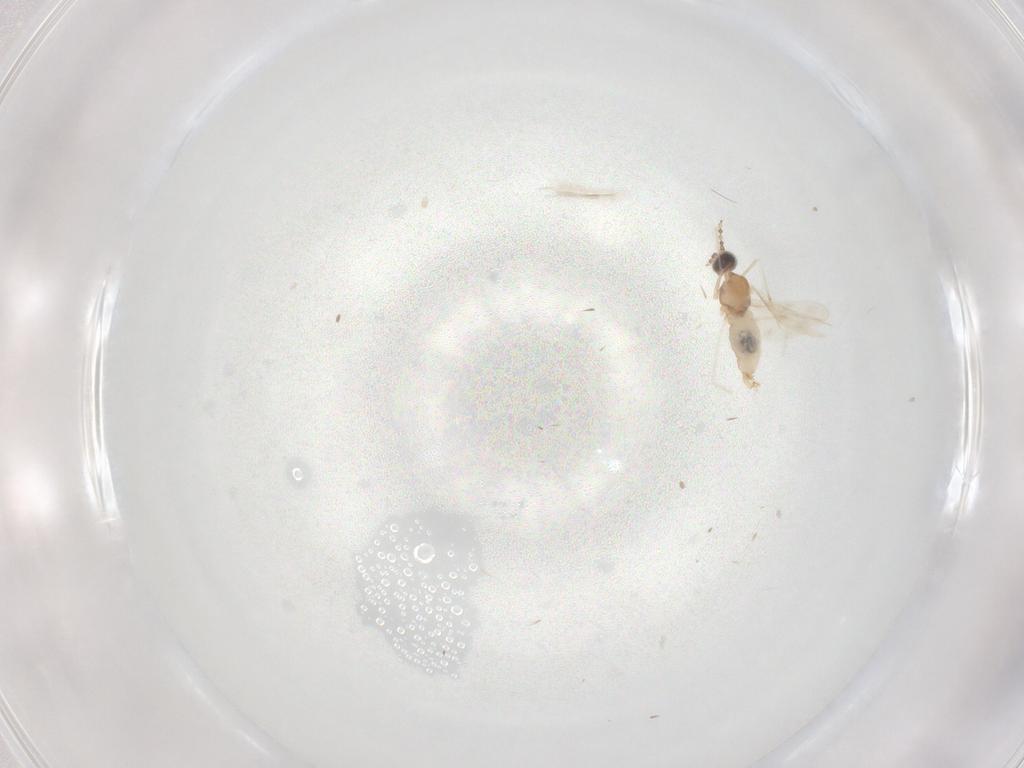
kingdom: Animalia
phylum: Arthropoda
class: Insecta
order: Diptera
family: Cecidomyiidae
